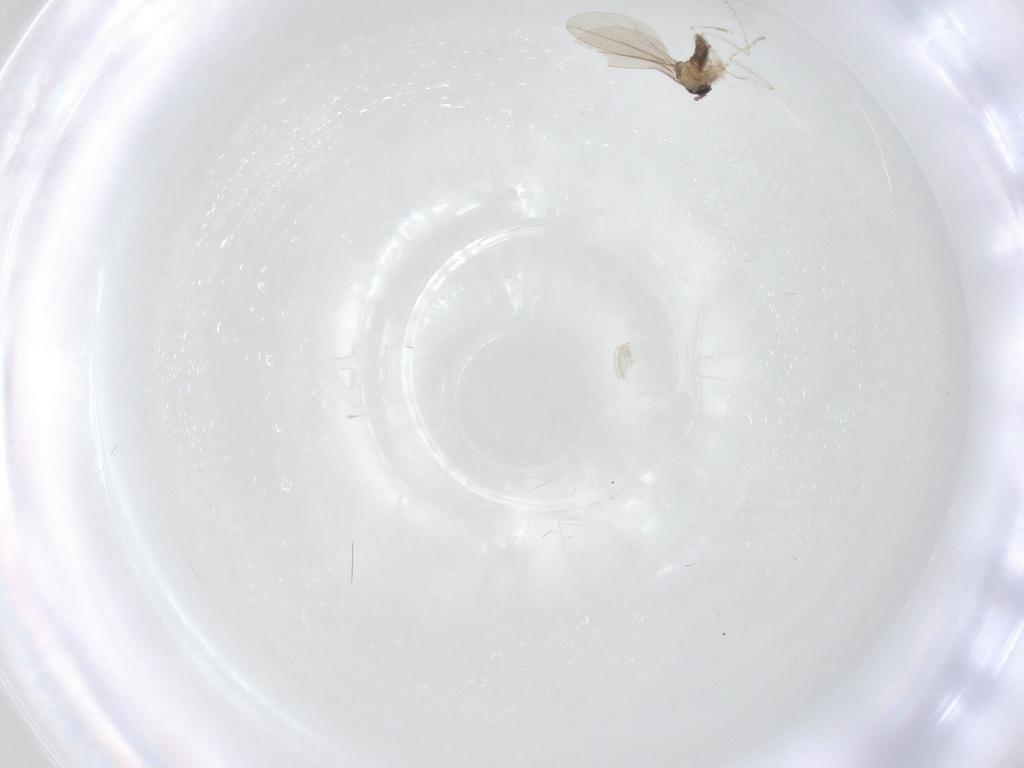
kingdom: Animalia
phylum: Arthropoda
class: Insecta
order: Diptera
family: Cecidomyiidae
